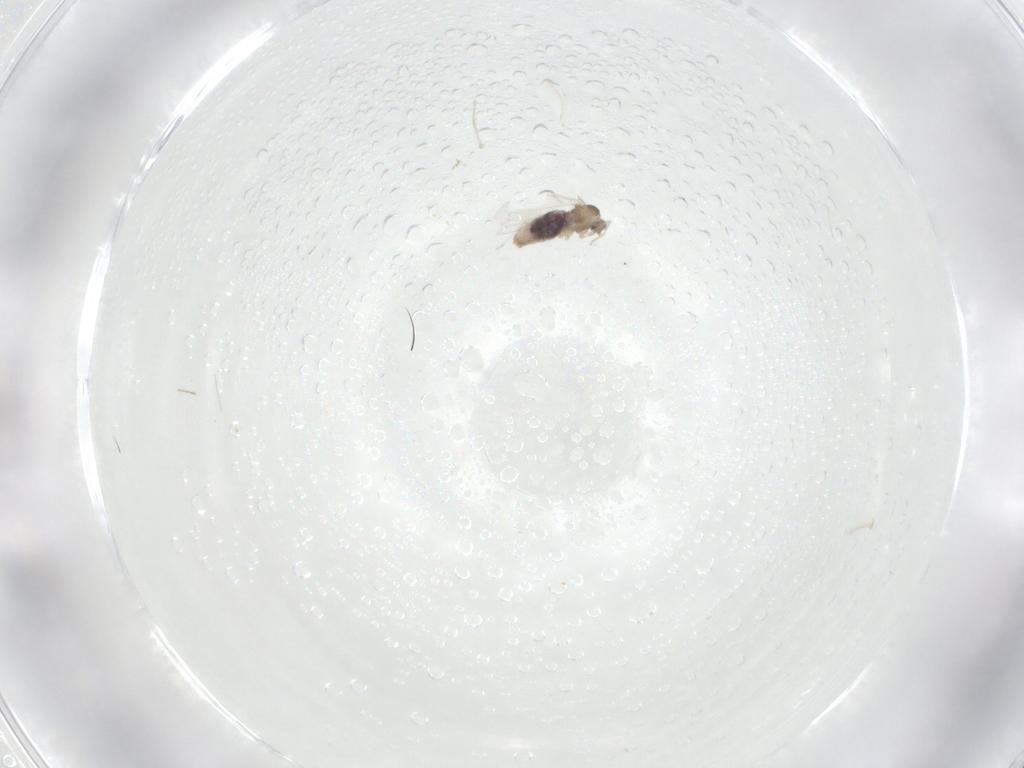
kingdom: Animalia
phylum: Arthropoda
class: Insecta
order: Diptera
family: Cecidomyiidae
